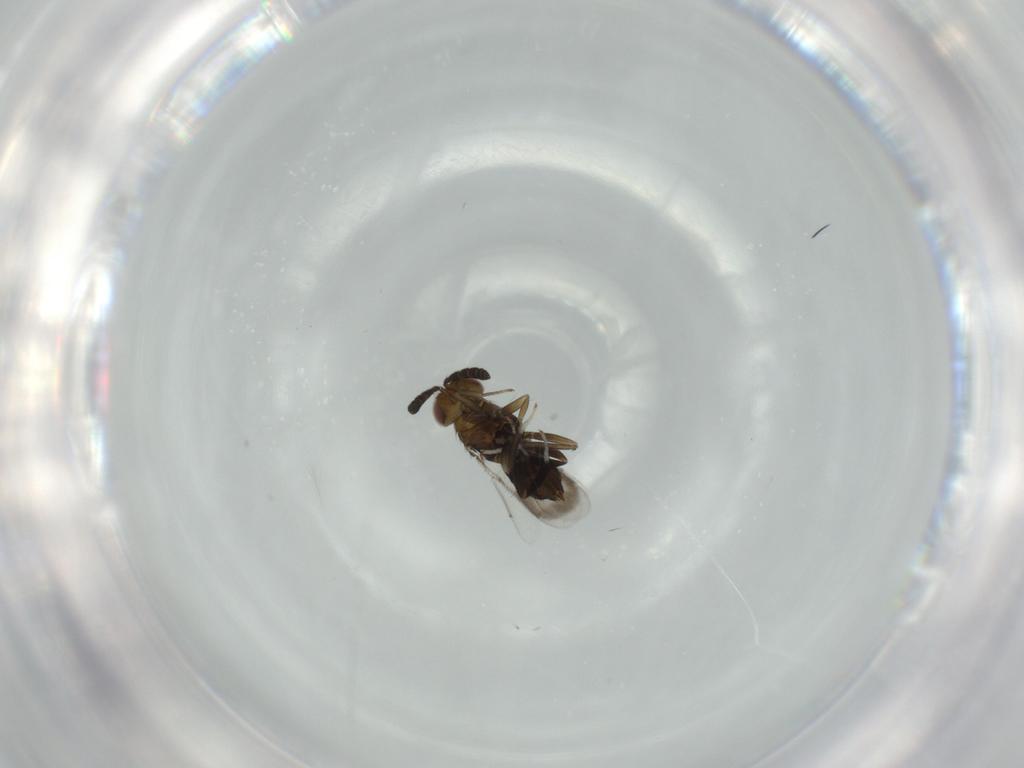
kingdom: Animalia
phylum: Arthropoda
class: Insecta
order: Hymenoptera
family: Aphelinidae
